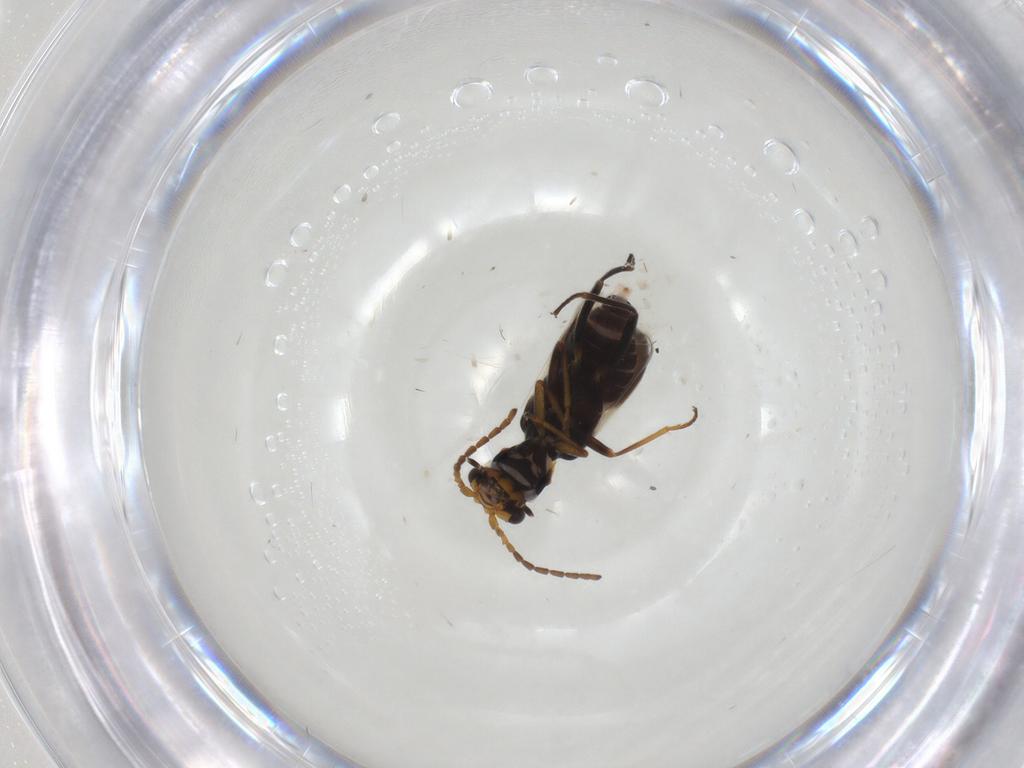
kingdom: Animalia
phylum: Arthropoda
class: Insecta
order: Coleoptera
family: Melyridae
